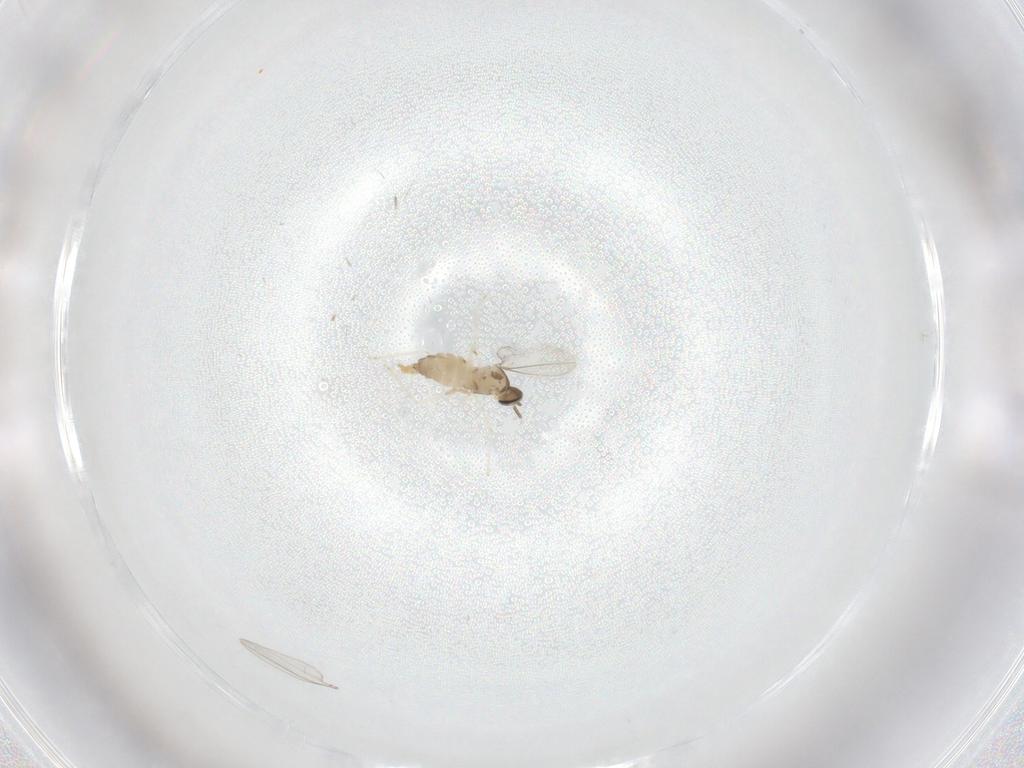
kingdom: Animalia
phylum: Arthropoda
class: Insecta
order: Diptera
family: Cecidomyiidae
